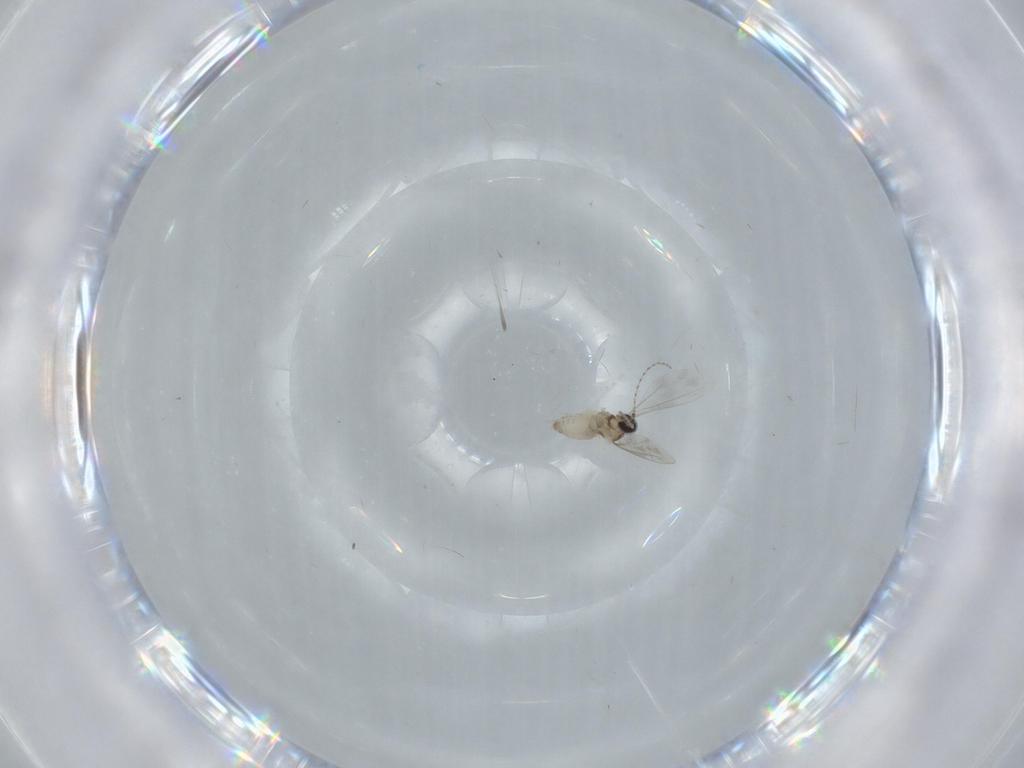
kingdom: Animalia
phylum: Arthropoda
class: Insecta
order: Diptera
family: Cecidomyiidae
